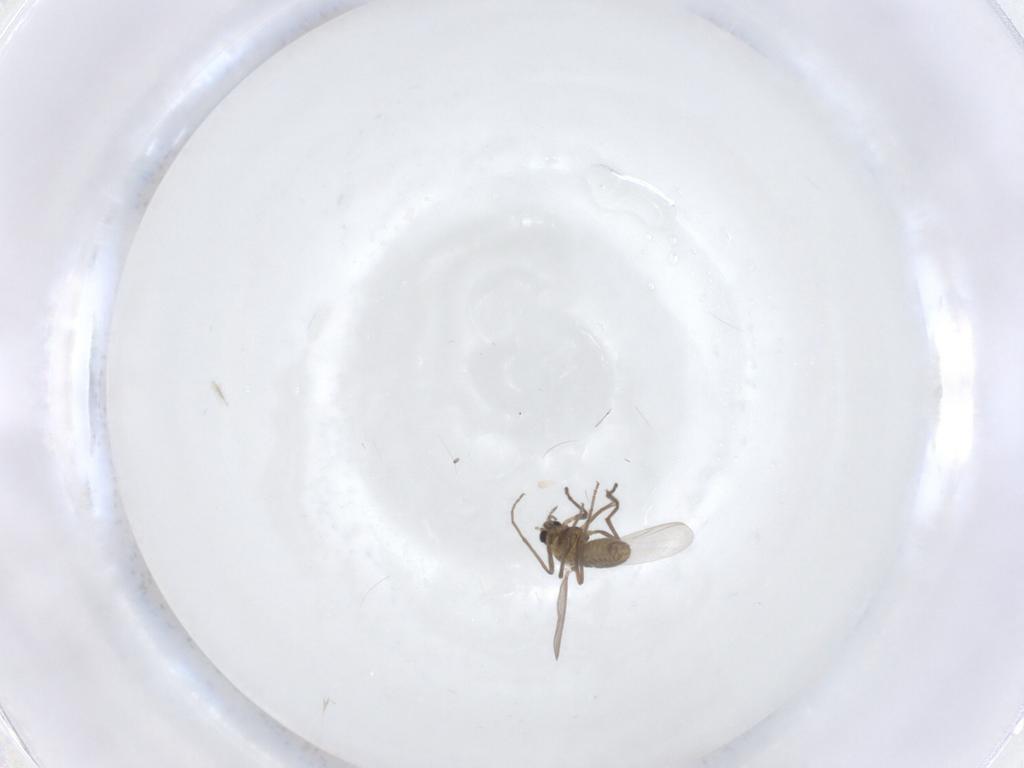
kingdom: Animalia
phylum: Arthropoda
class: Insecta
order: Diptera
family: Chironomidae
